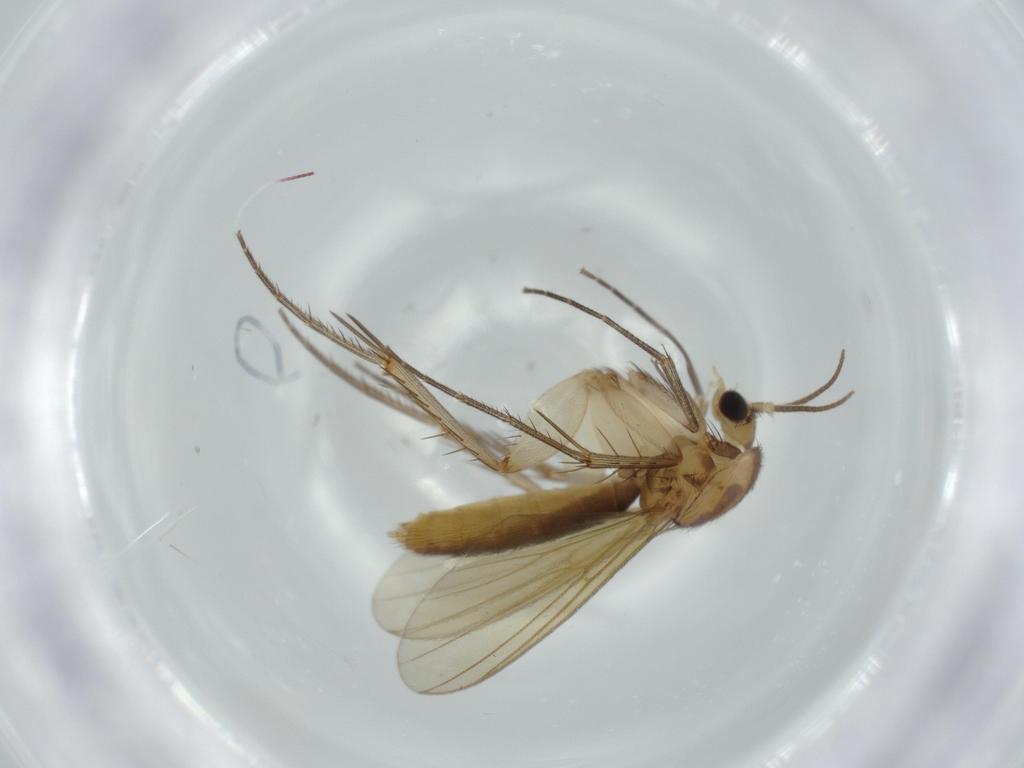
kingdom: Animalia
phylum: Arthropoda
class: Insecta
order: Diptera
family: Mycetophilidae
